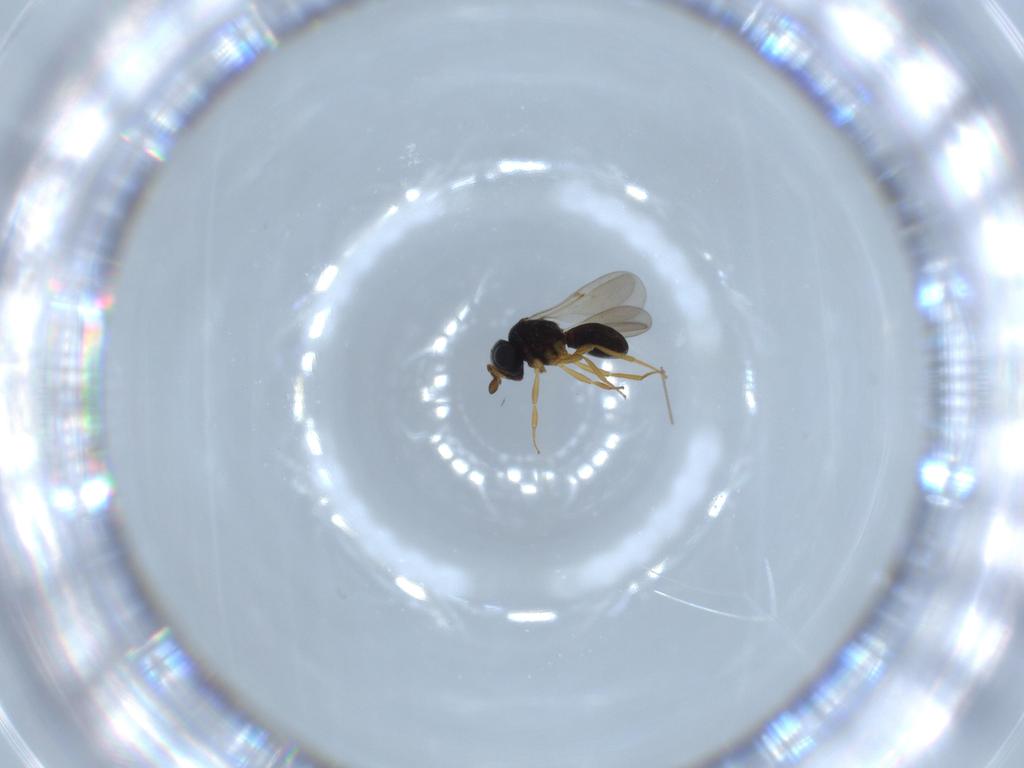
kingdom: Animalia
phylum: Arthropoda
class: Insecta
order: Hymenoptera
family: Scelionidae
